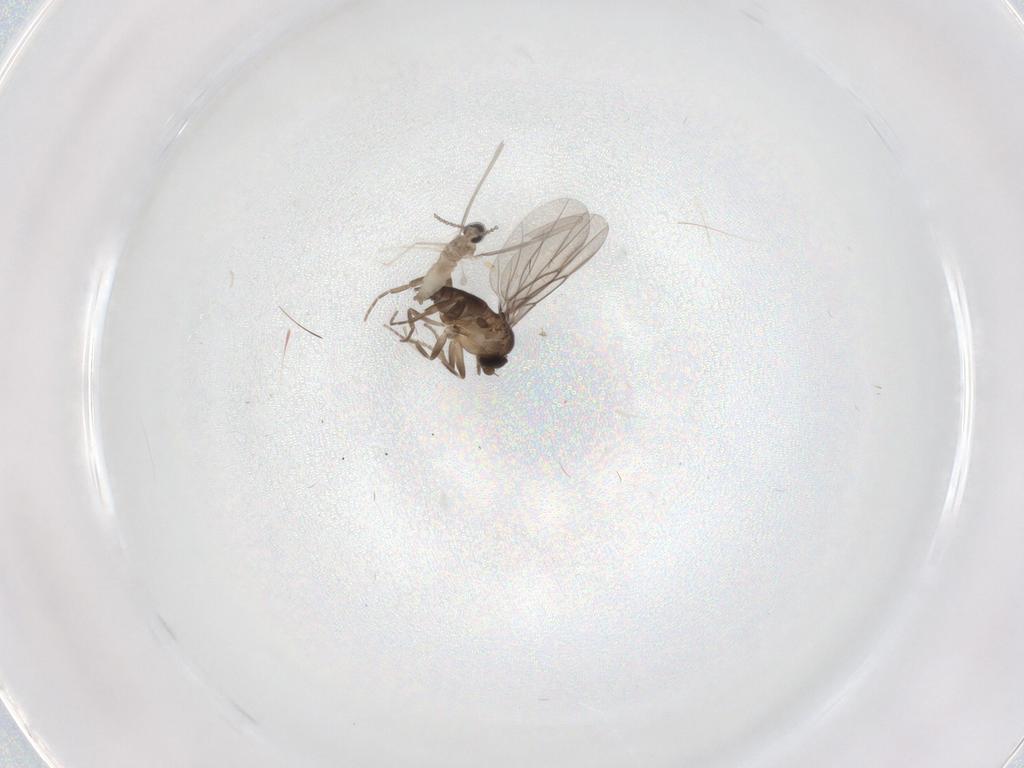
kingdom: Animalia
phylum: Arthropoda
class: Insecta
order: Diptera
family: Cecidomyiidae
